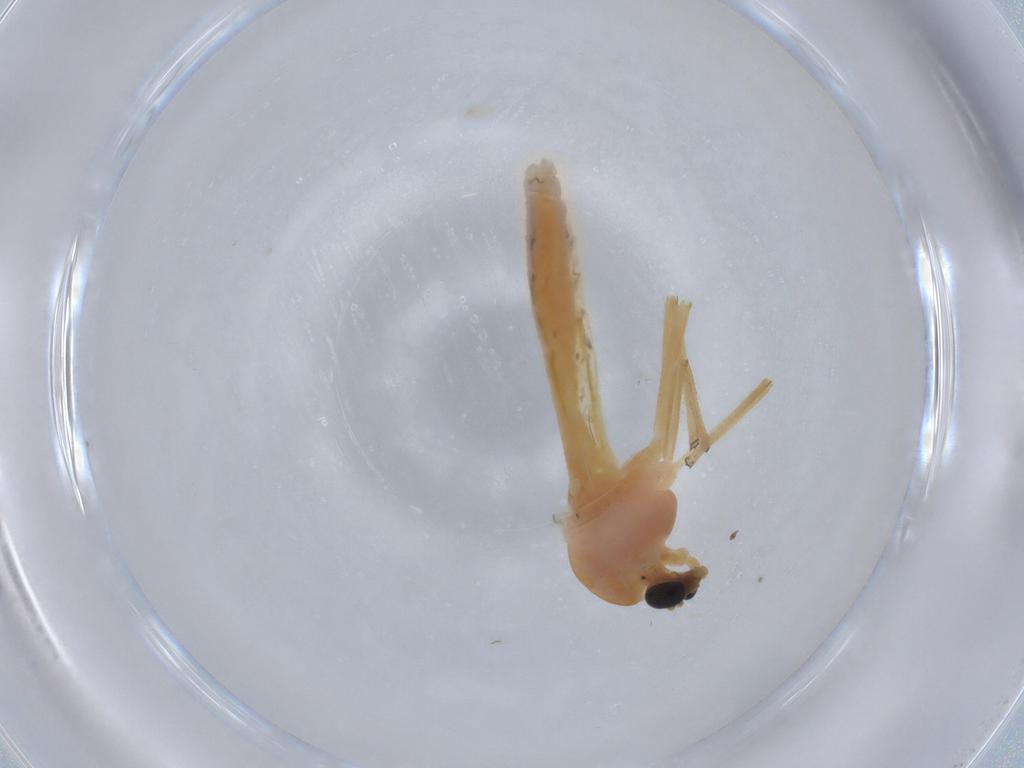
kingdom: Animalia
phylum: Arthropoda
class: Insecta
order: Diptera
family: Chironomidae
